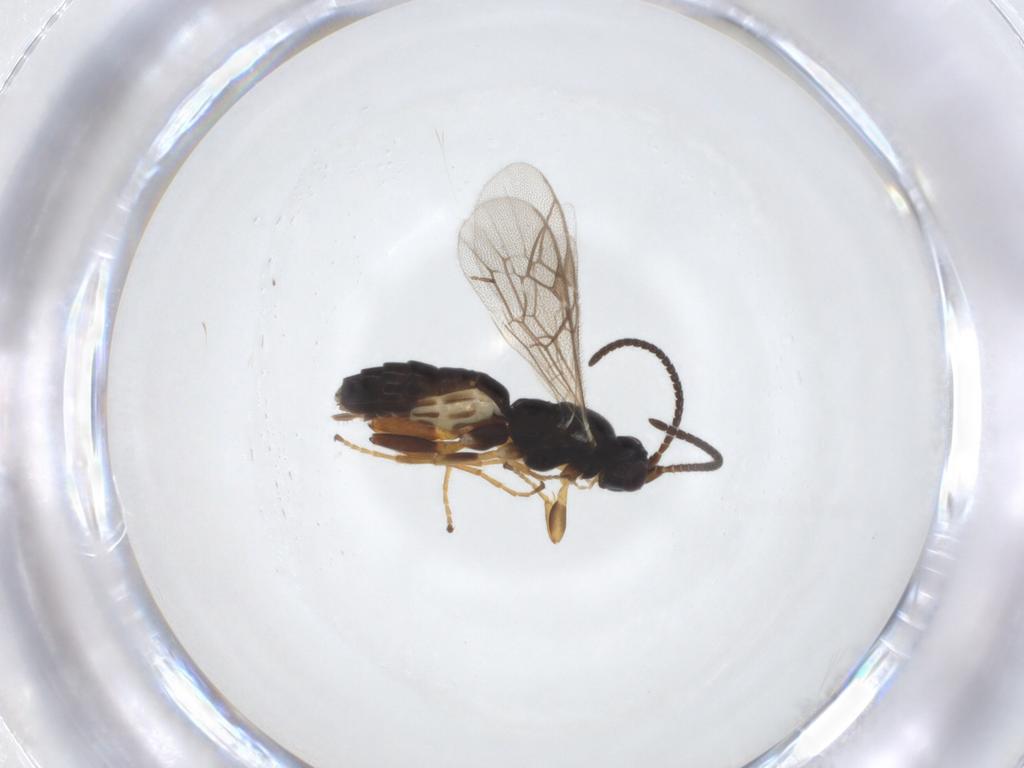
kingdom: Animalia
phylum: Arthropoda
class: Insecta
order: Hymenoptera
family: Ichneumonidae
